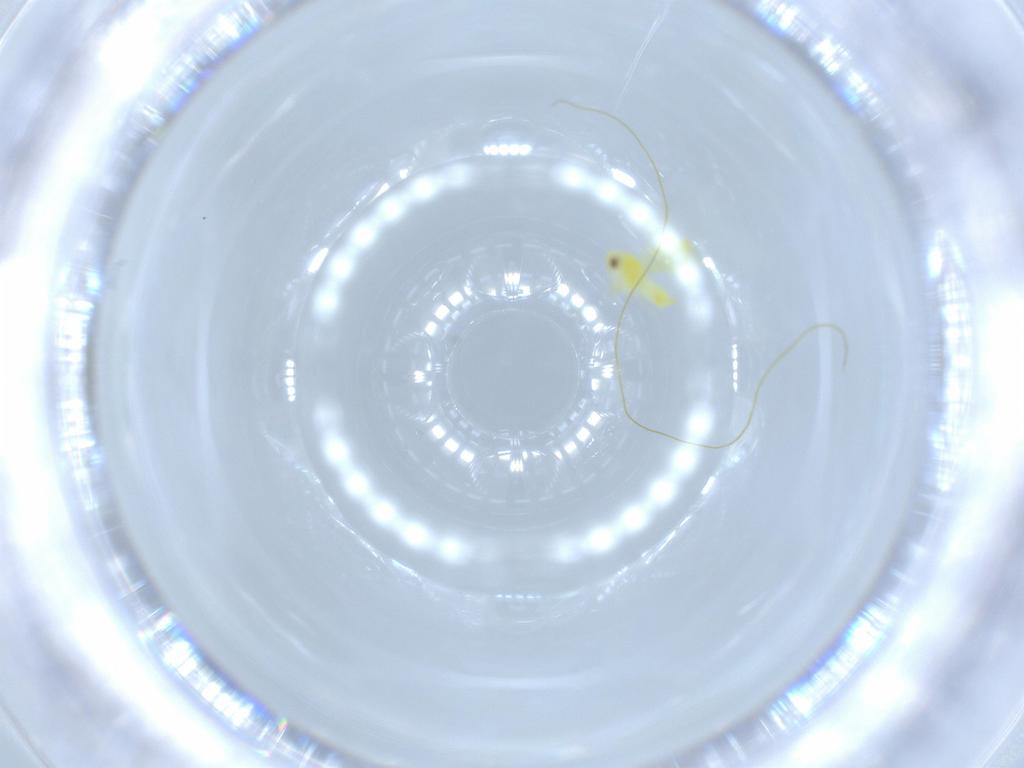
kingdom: Animalia
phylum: Arthropoda
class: Insecta
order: Hemiptera
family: Aleyrodidae
